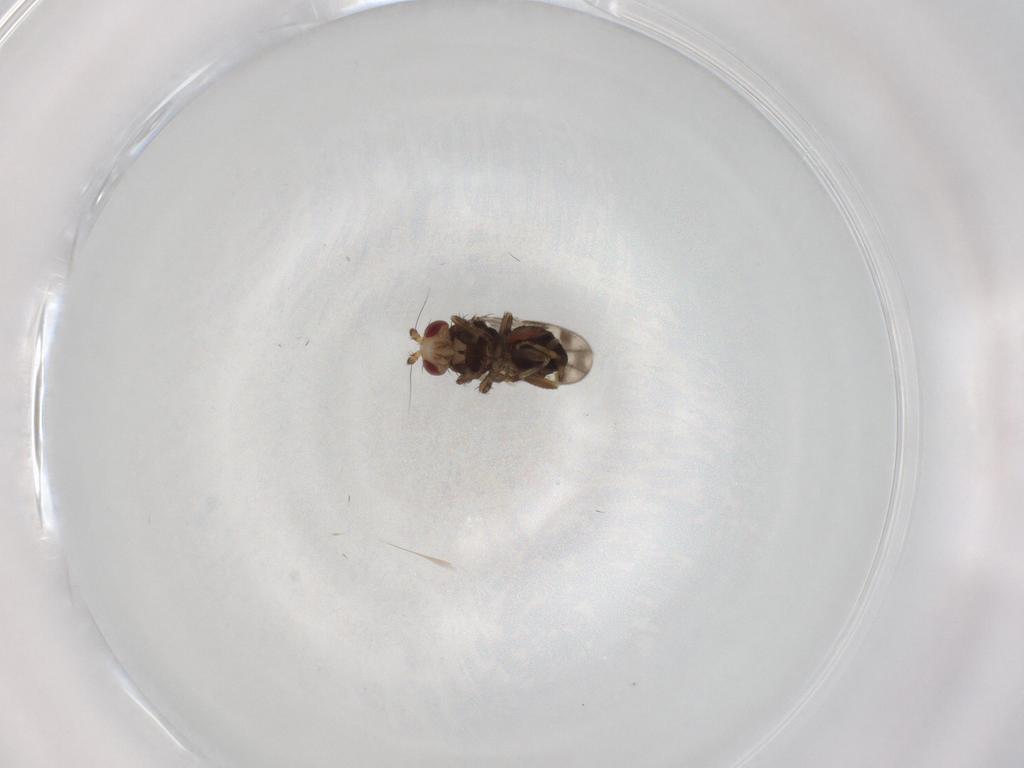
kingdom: Animalia
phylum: Arthropoda
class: Insecta
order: Diptera
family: Sphaeroceridae
